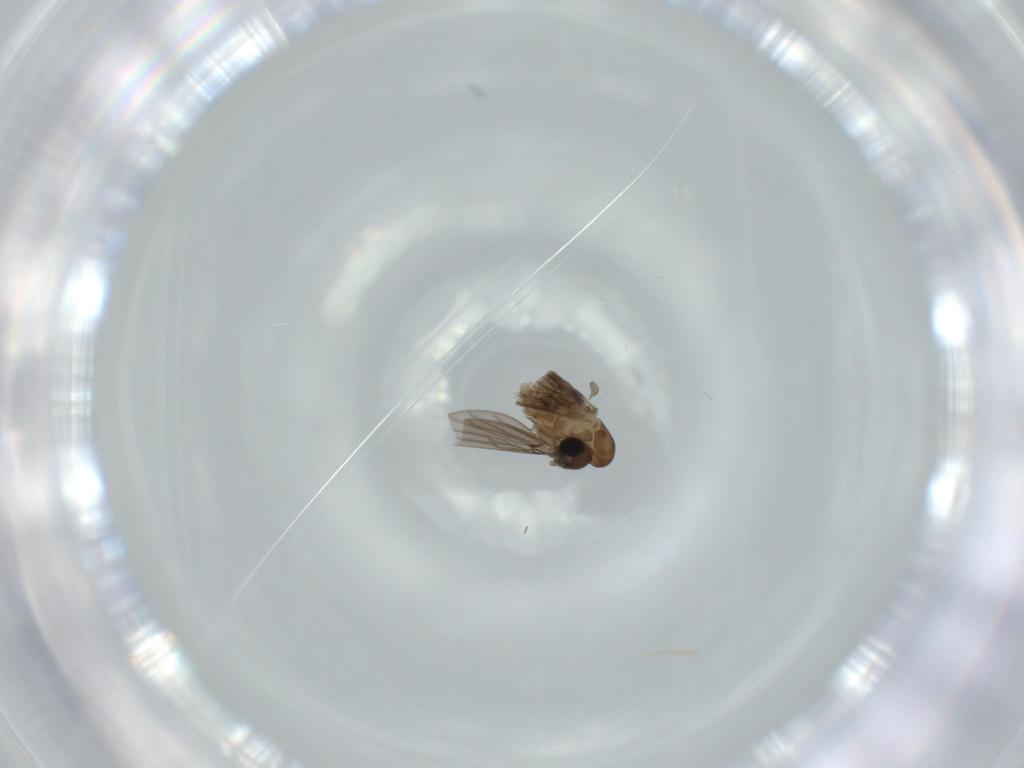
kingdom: Animalia
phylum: Arthropoda
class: Insecta
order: Diptera
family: Psychodidae
